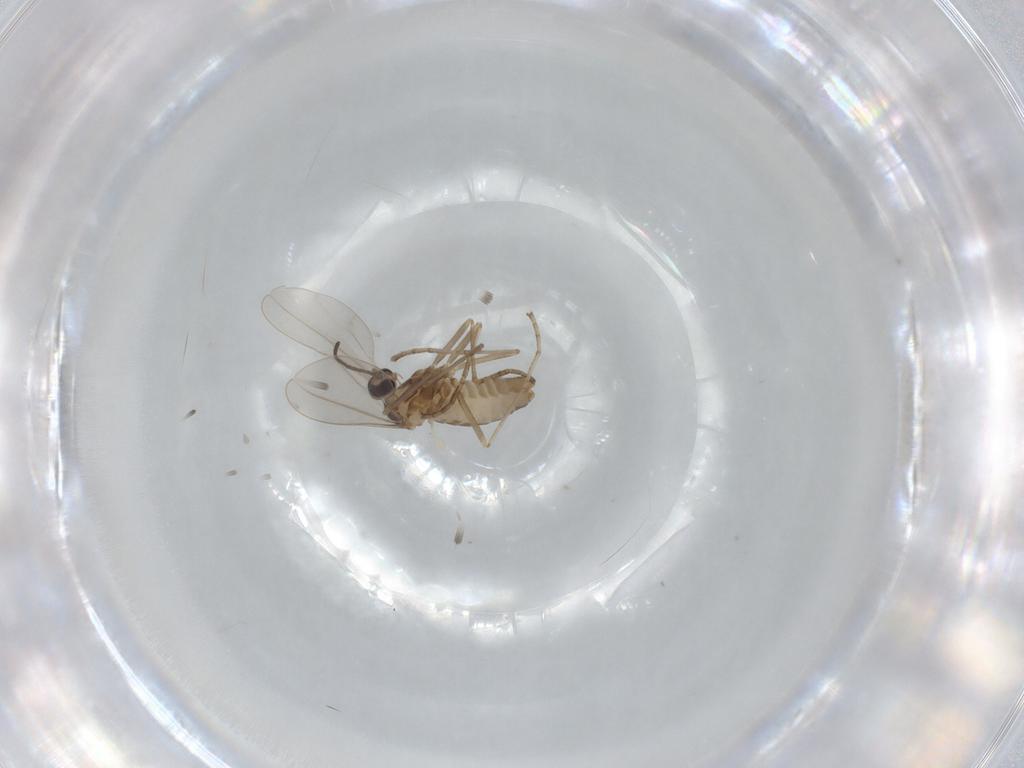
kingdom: Animalia
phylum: Arthropoda
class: Insecta
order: Diptera
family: Cecidomyiidae
